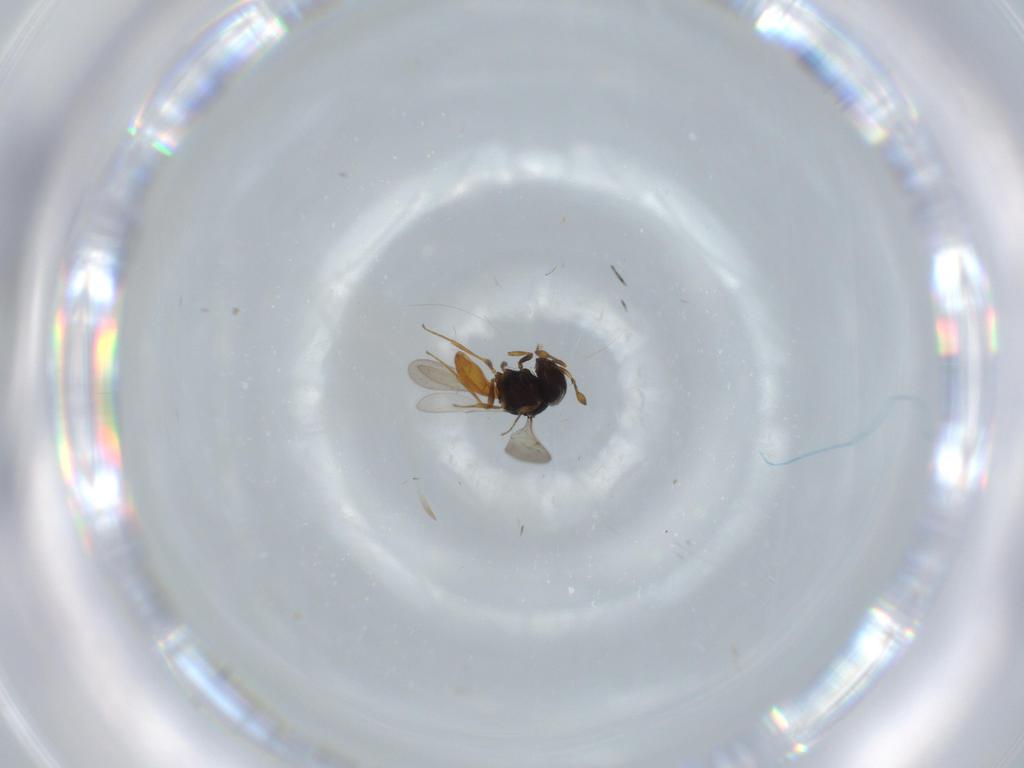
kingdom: Animalia
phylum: Arthropoda
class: Insecta
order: Hymenoptera
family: Scelionidae
